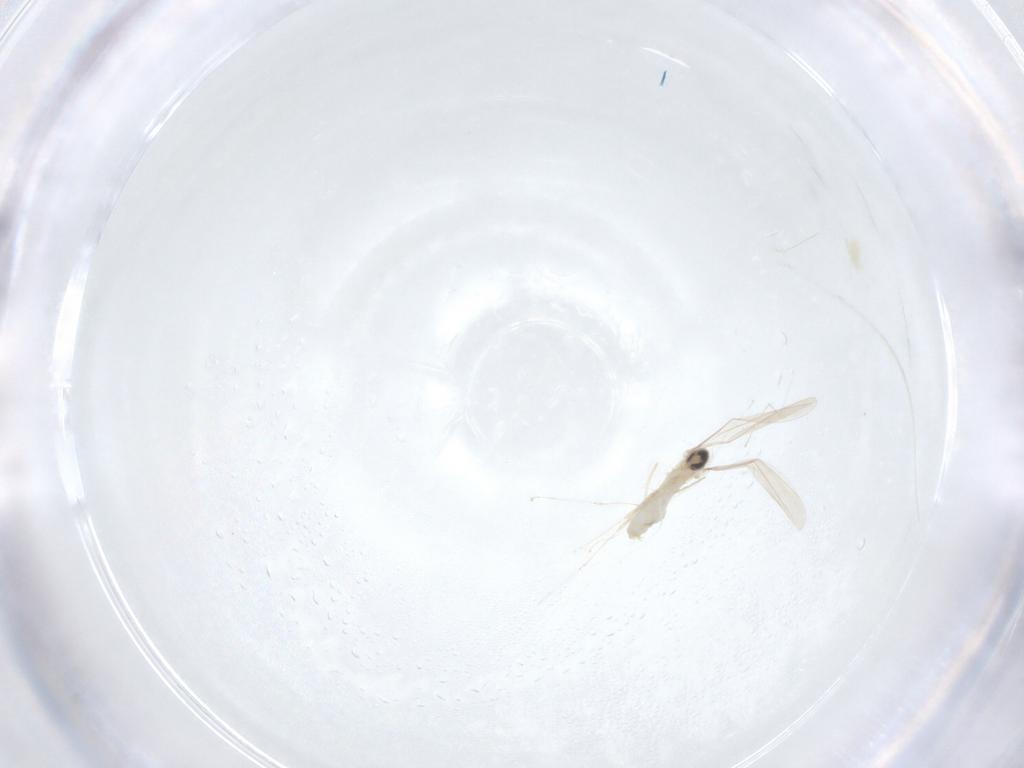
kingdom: Animalia
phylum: Arthropoda
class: Insecta
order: Diptera
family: Cecidomyiidae
